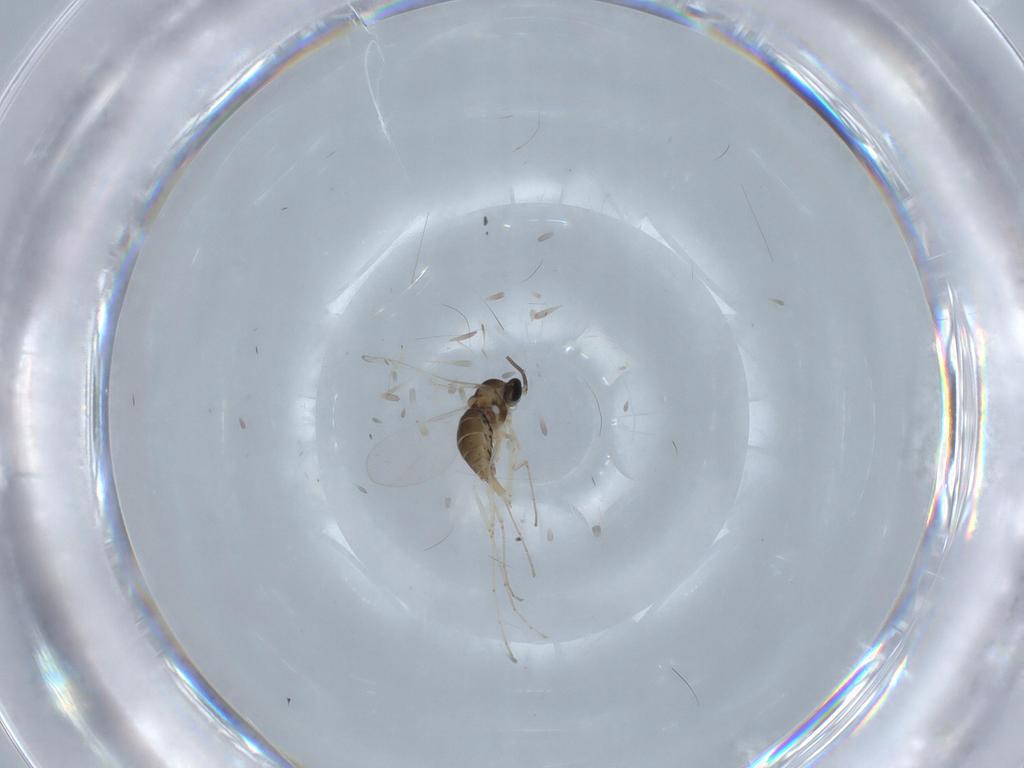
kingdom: Animalia
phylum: Arthropoda
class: Insecta
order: Diptera
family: Cecidomyiidae
